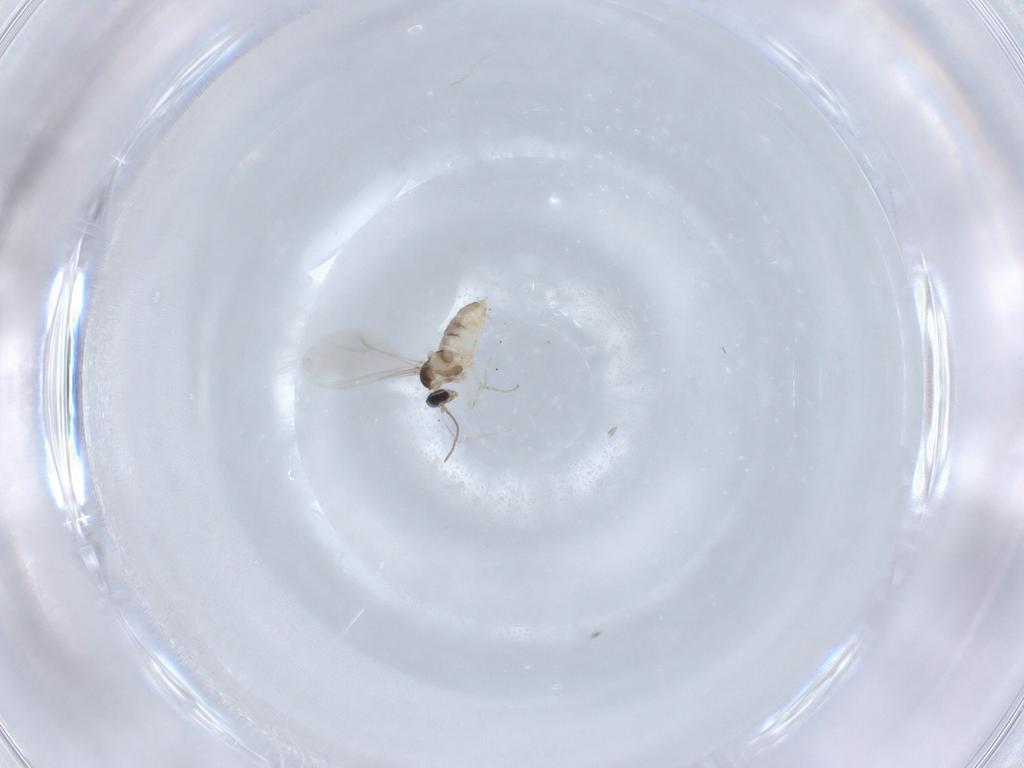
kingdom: Animalia
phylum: Arthropoda
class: Insecta
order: Diptera
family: Cecidomyiidae
